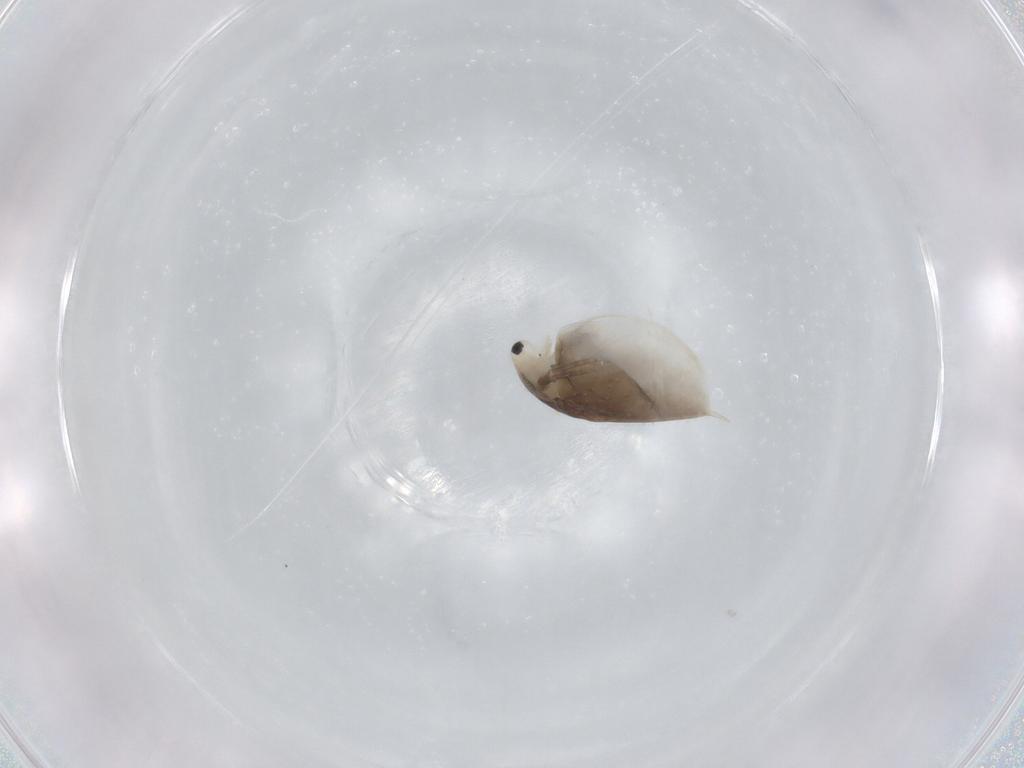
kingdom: Animalia
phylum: Arthropoda
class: Branchiopoda
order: Diplostraca
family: Daphniidae
